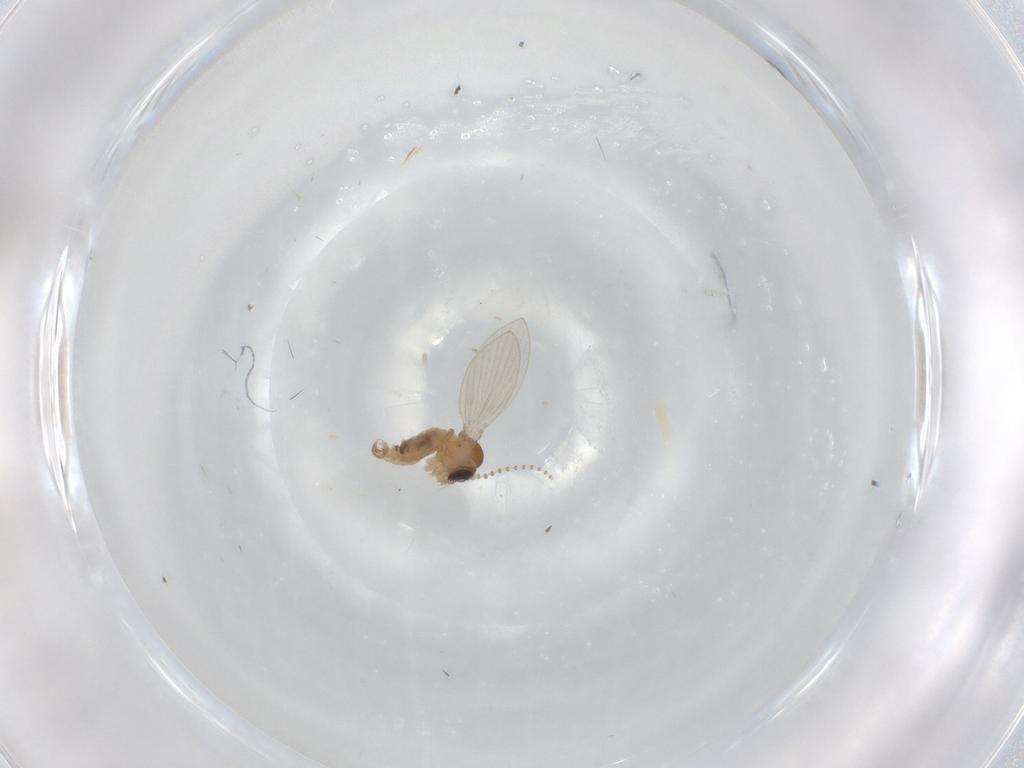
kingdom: Animalia
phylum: Arthropoda
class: Insecta
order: Diptera
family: Psychodidae
